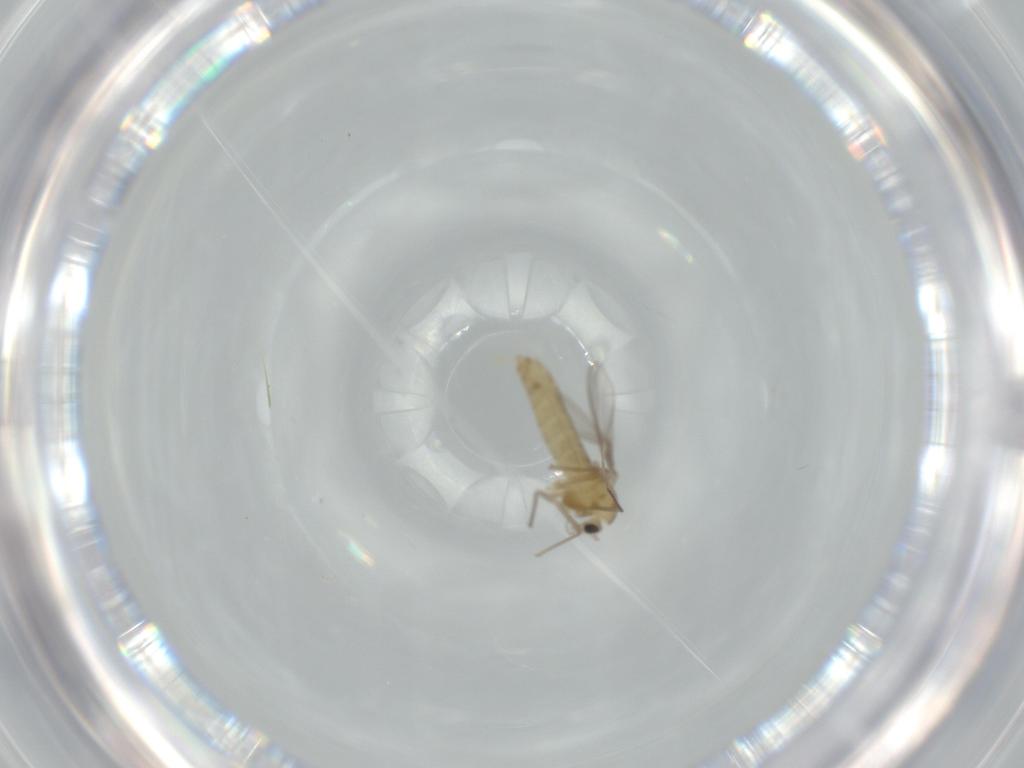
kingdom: Animalia
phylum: Arthropoda
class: Insecta
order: Diptera
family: Chironomidae
